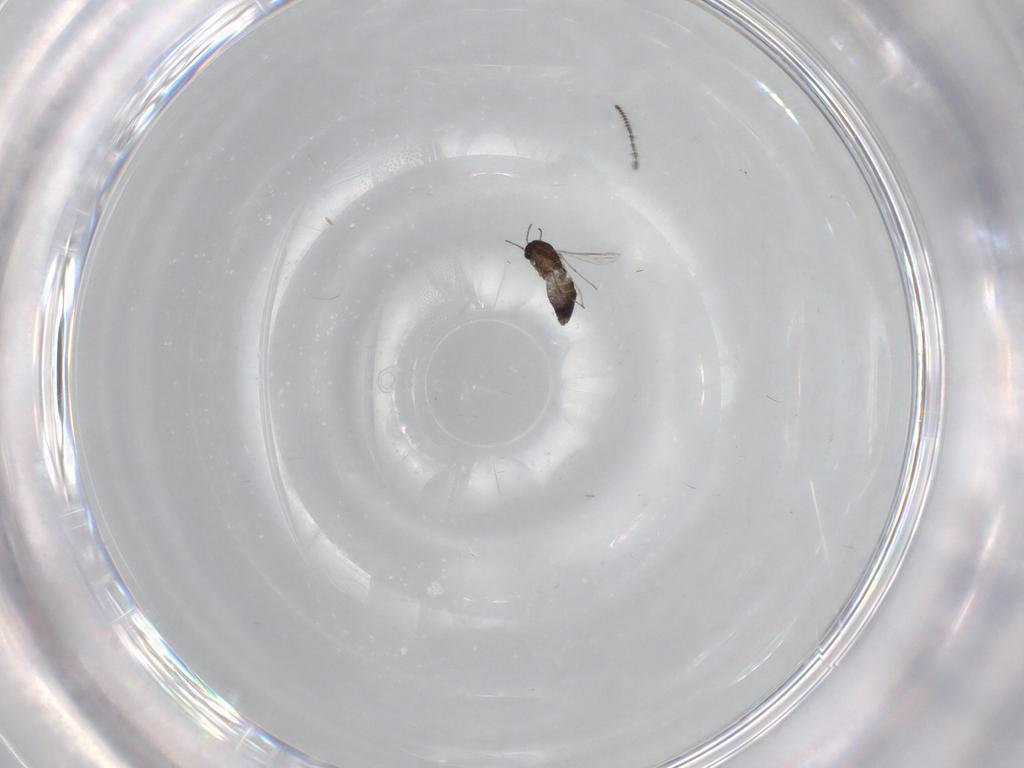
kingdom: Animalia
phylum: Arthropoda
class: Insecta
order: Diptera
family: Chironomidae
